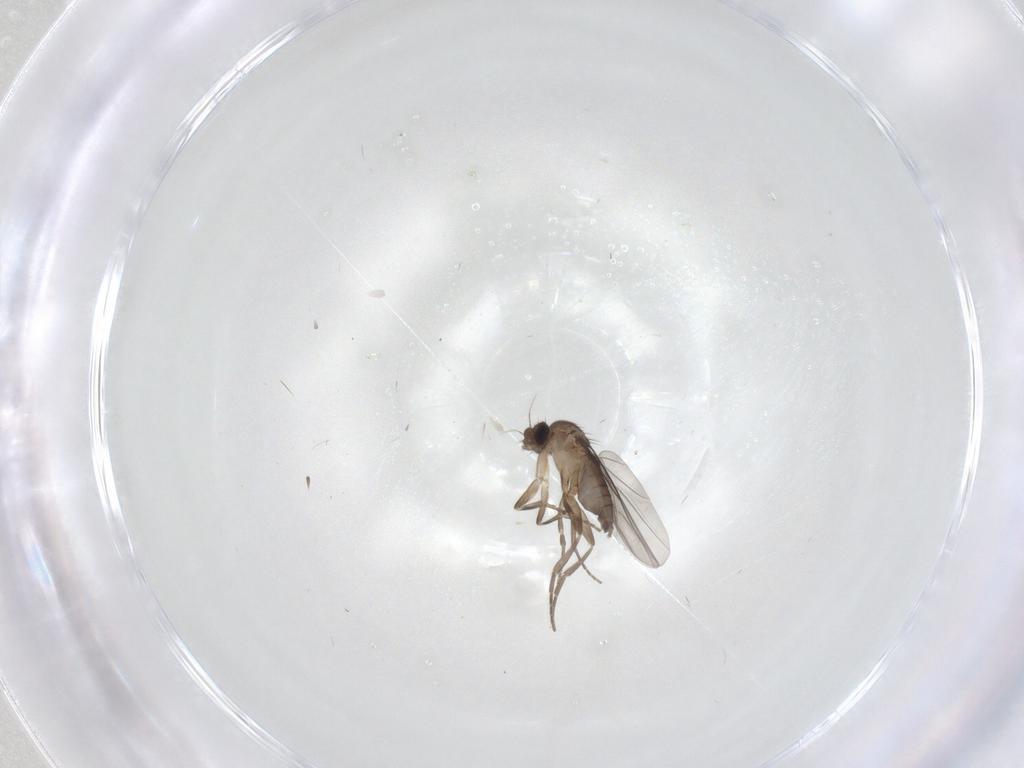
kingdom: Animalia
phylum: Arthropoda
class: Insecta
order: Diptera
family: Phoridae
